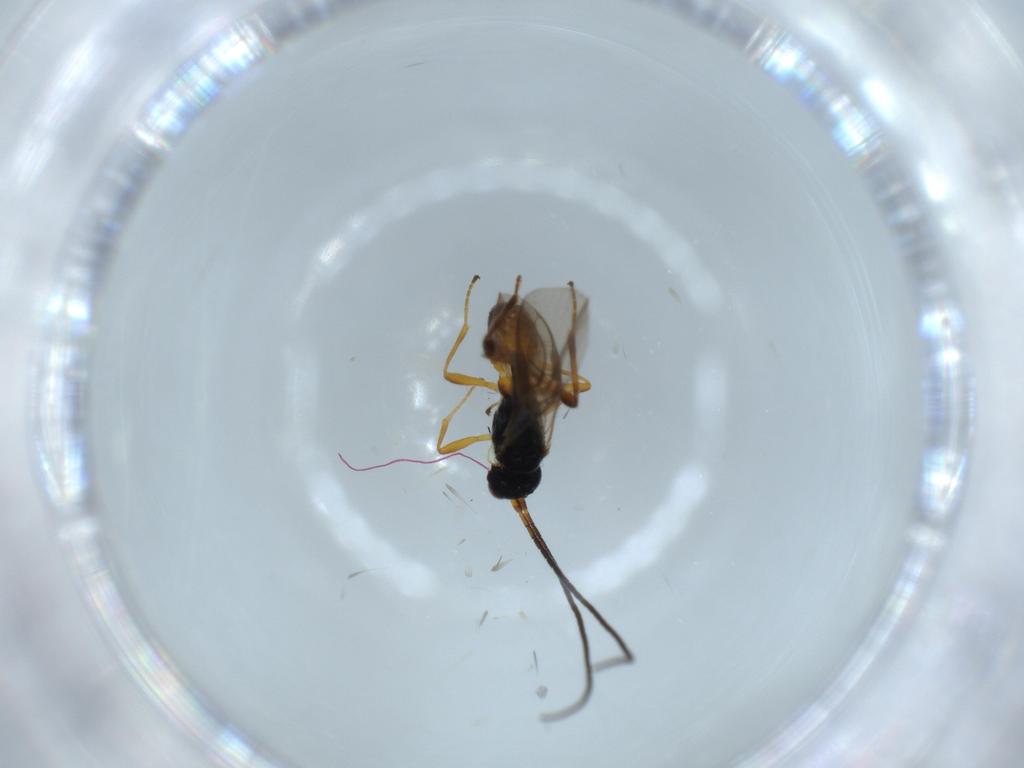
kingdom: Animalia
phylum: Arthropoda
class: Insecta
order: Hymenoptera
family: Braconidae
